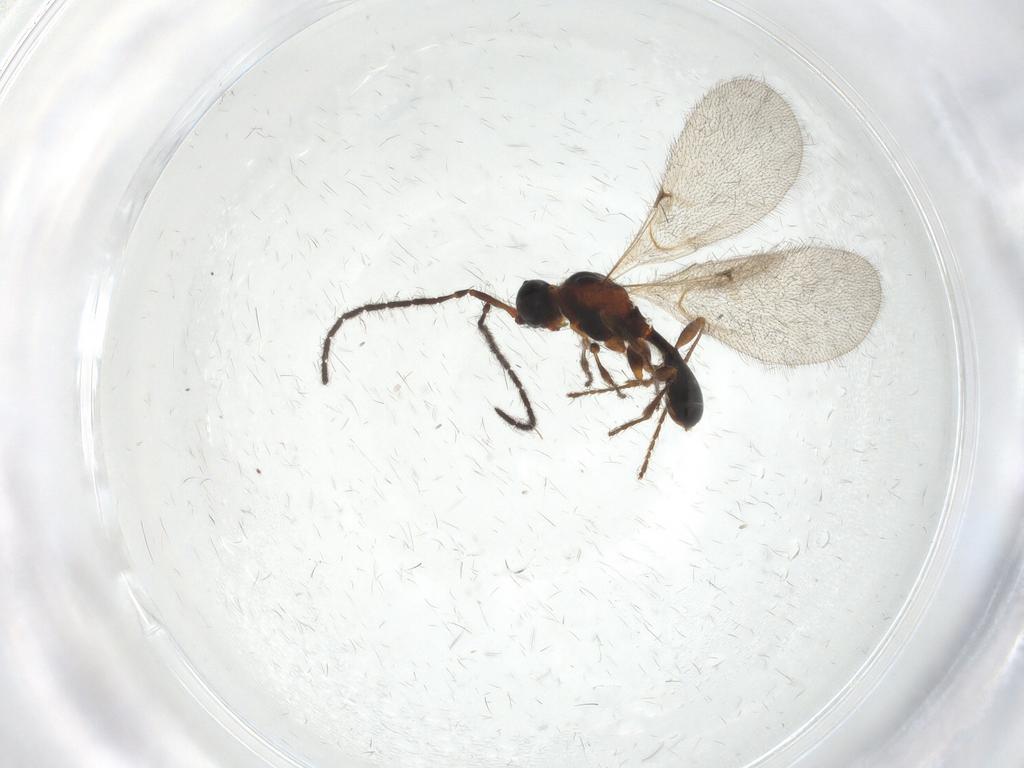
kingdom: Animalia
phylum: Arthropoda
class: Insecta
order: Hymenoptera
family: Diapriidae
